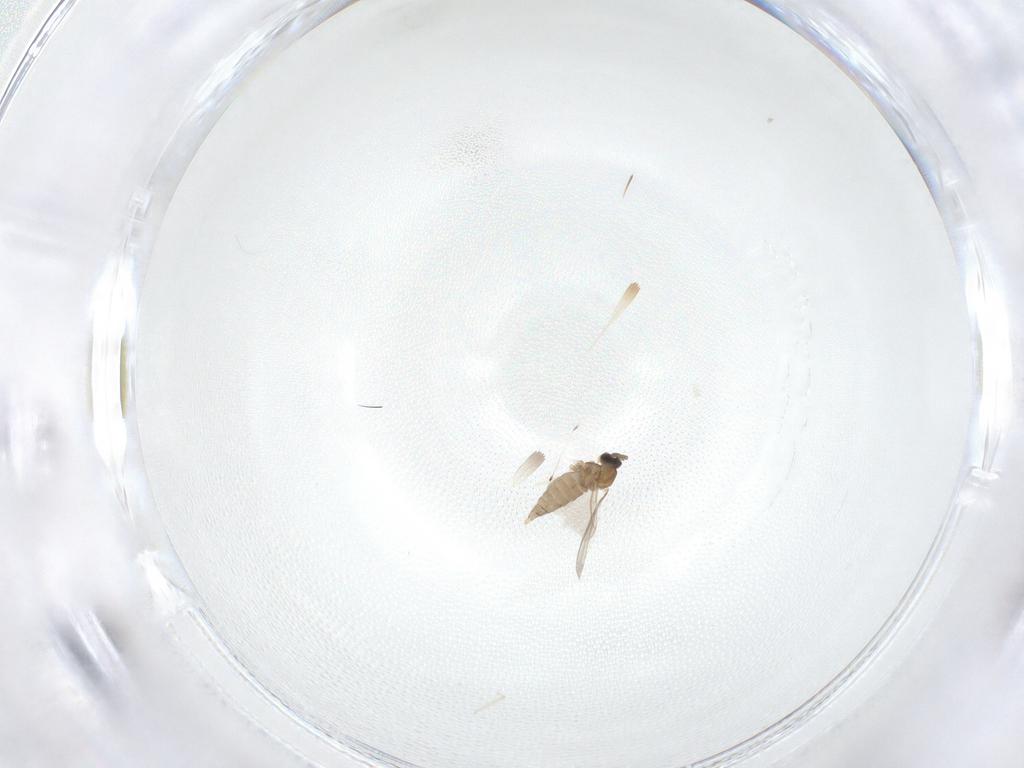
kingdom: Animalia
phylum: Arthropoda
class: Insecta
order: Diptera
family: Cecidomyiidae
